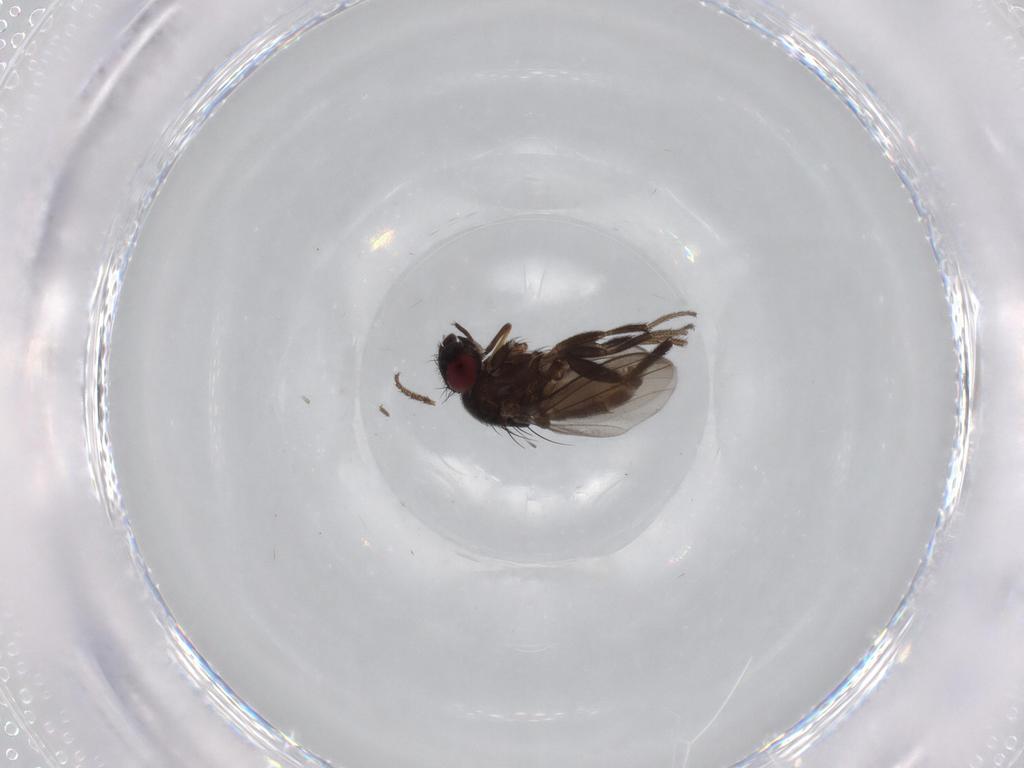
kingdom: Animalia
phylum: Arthropoda
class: Insecta
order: Diptera
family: Milichiidae
